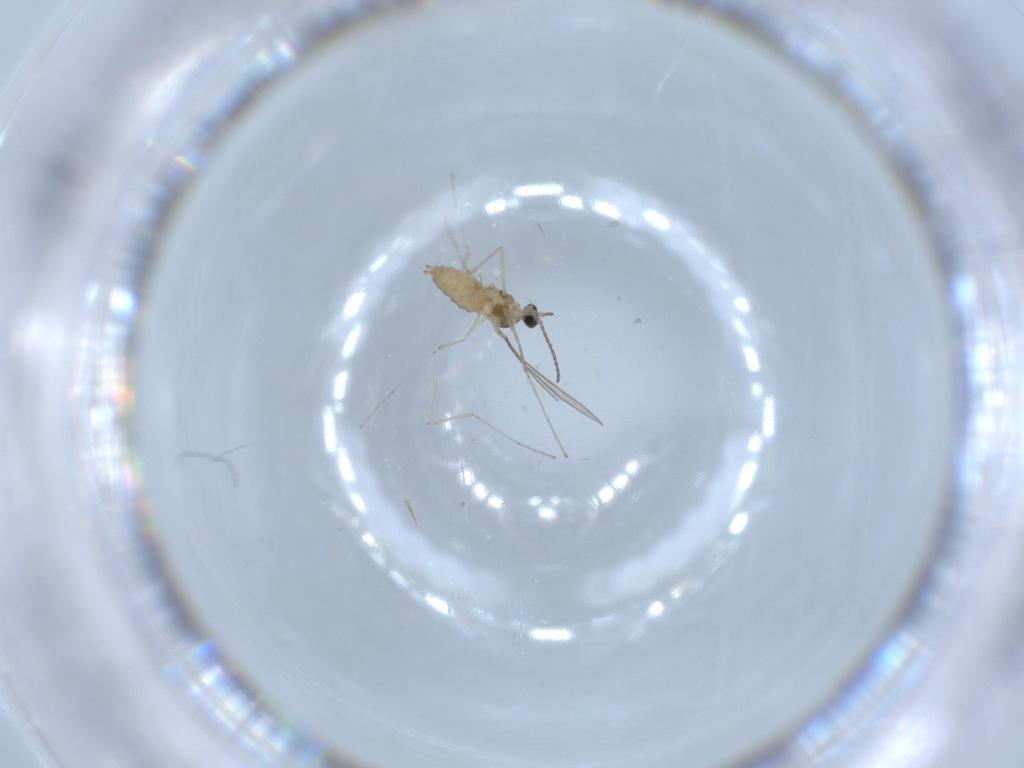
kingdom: Animalia
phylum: Arthropoda
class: Insecta
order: Diptera
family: Cecidomyiidae
